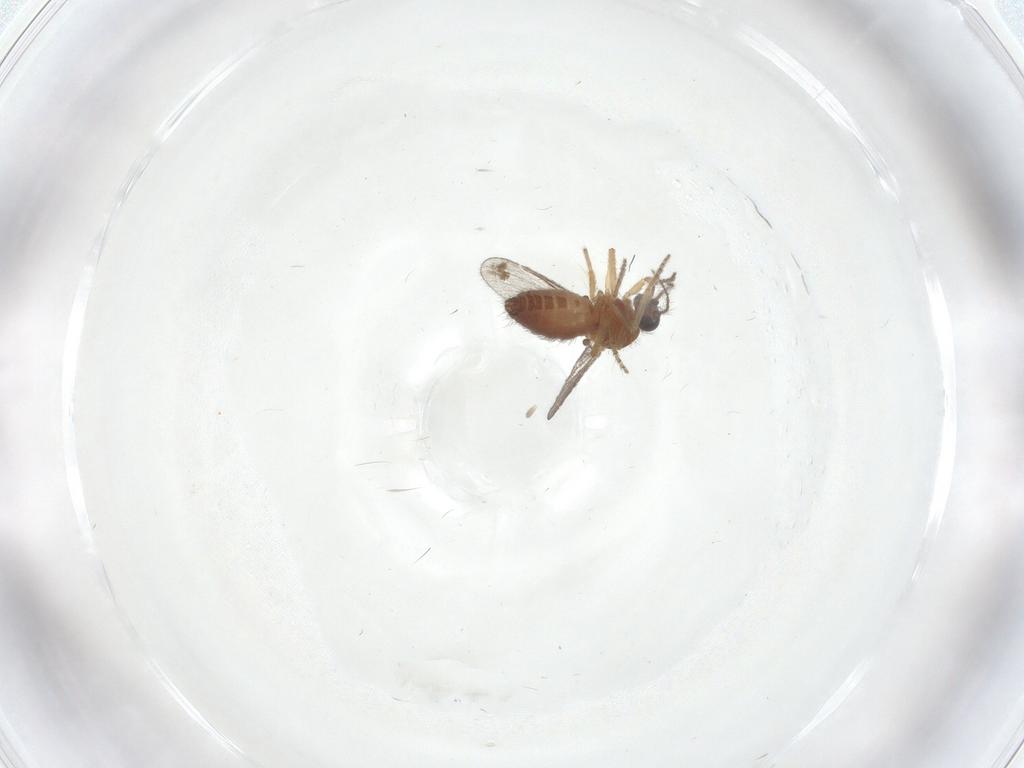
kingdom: Animalia
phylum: Arthropoda
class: Insecta
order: Diptera
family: Ceratopogonidae
